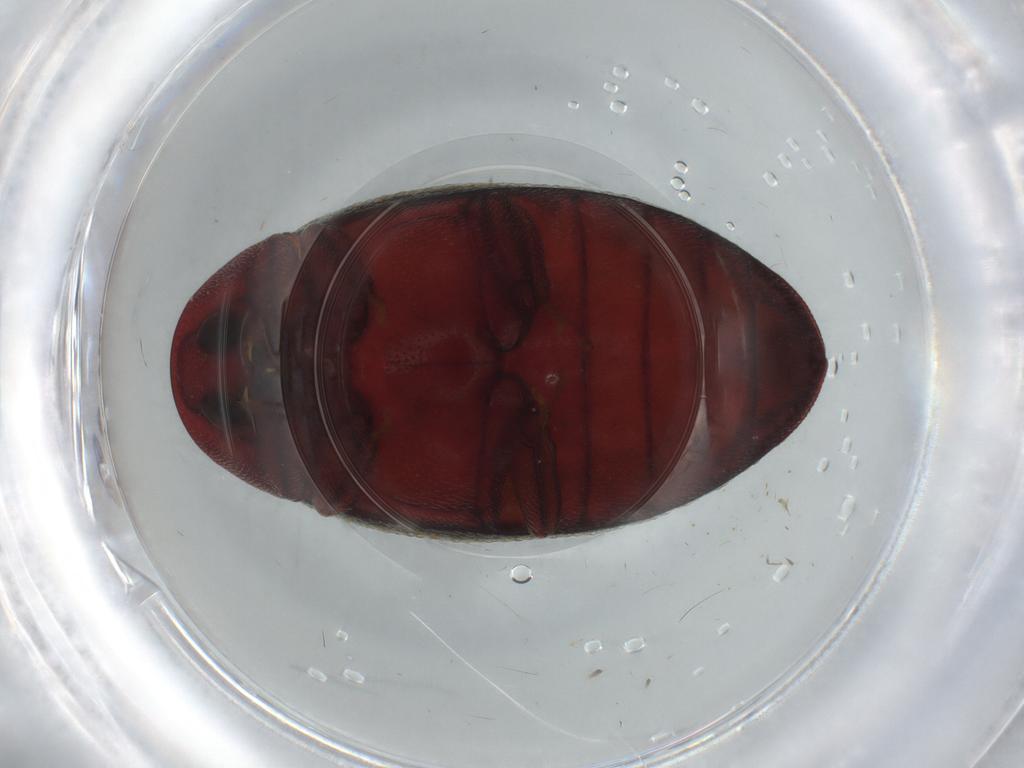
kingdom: Animalia
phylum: Arthropoda
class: Insecta
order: Coleoptera
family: Chelonariidae
